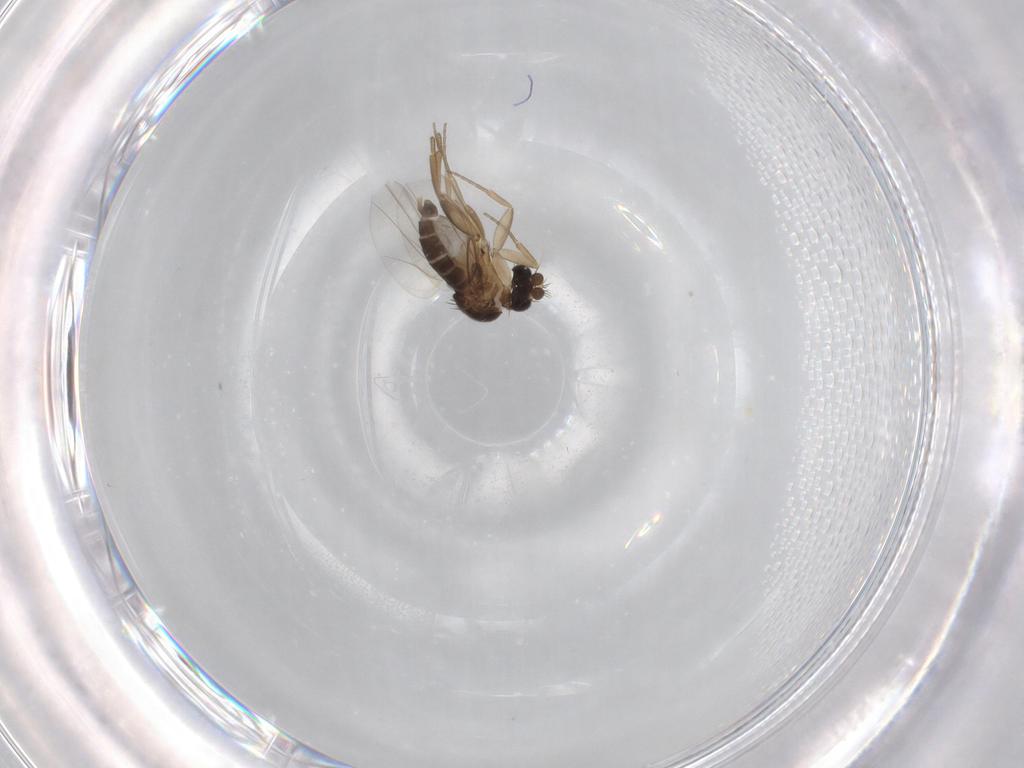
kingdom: Animalia
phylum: Arthropoda
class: Insecta
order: Diptera
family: Phoridae
